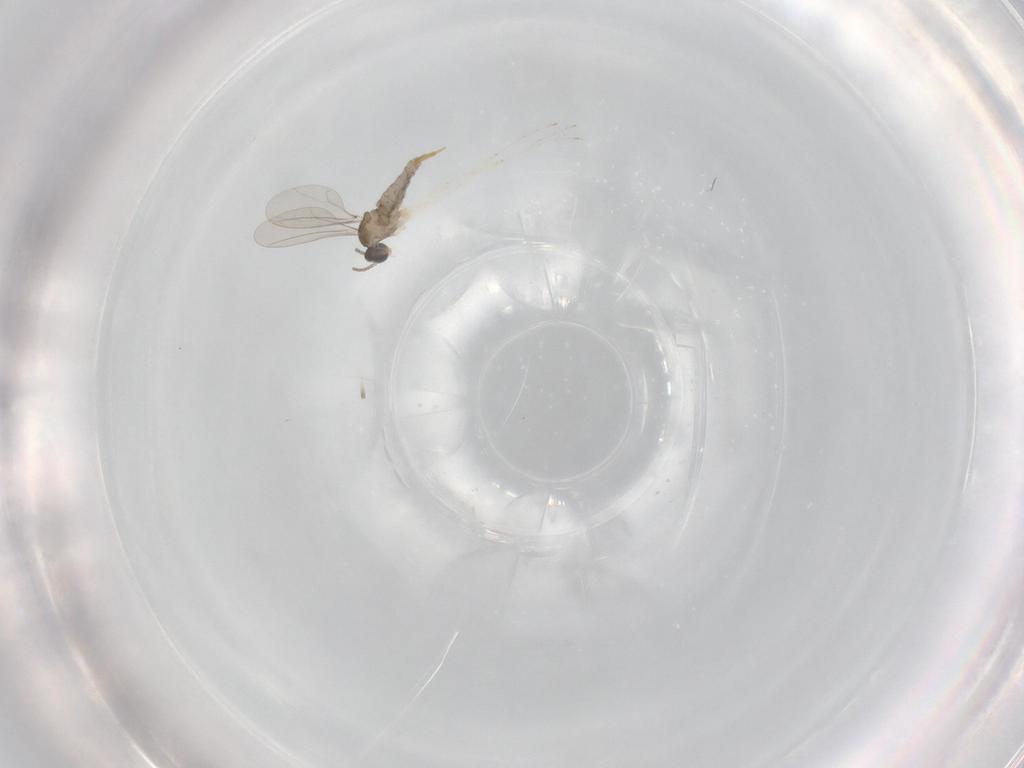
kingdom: Animalia
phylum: Arthropoda
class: Insecta
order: Diptera
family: Cecidomyiidae
